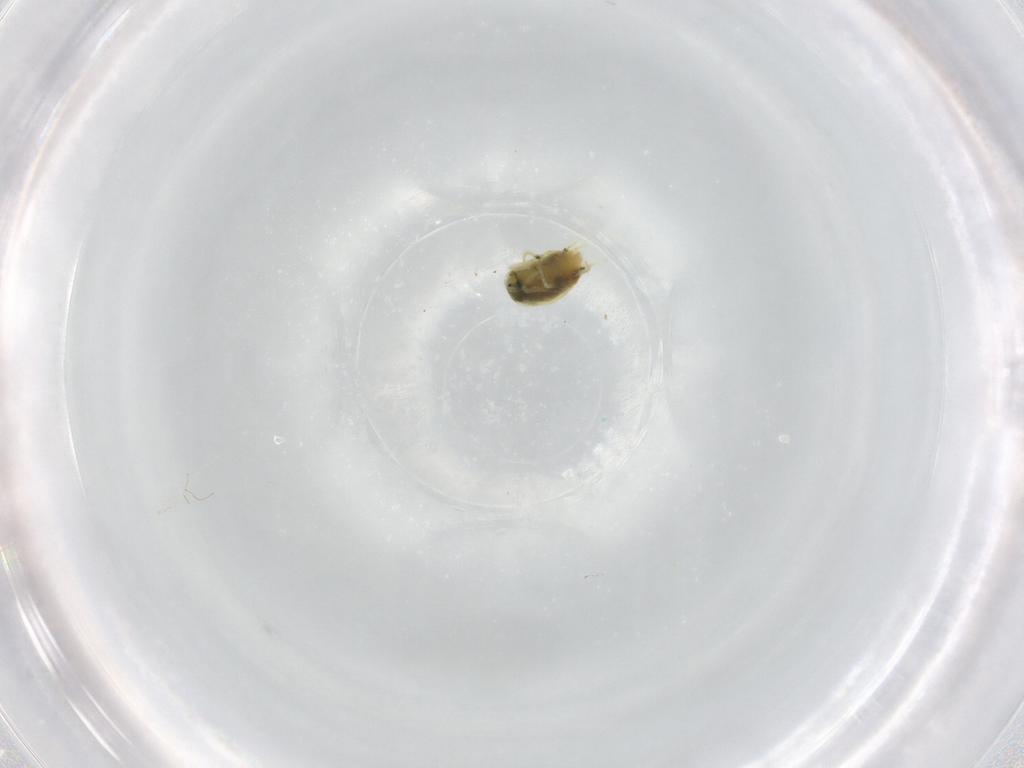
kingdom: Animalia
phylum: Arthropoda
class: Arachnida
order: Trombidiformes
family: Tetranychidae
